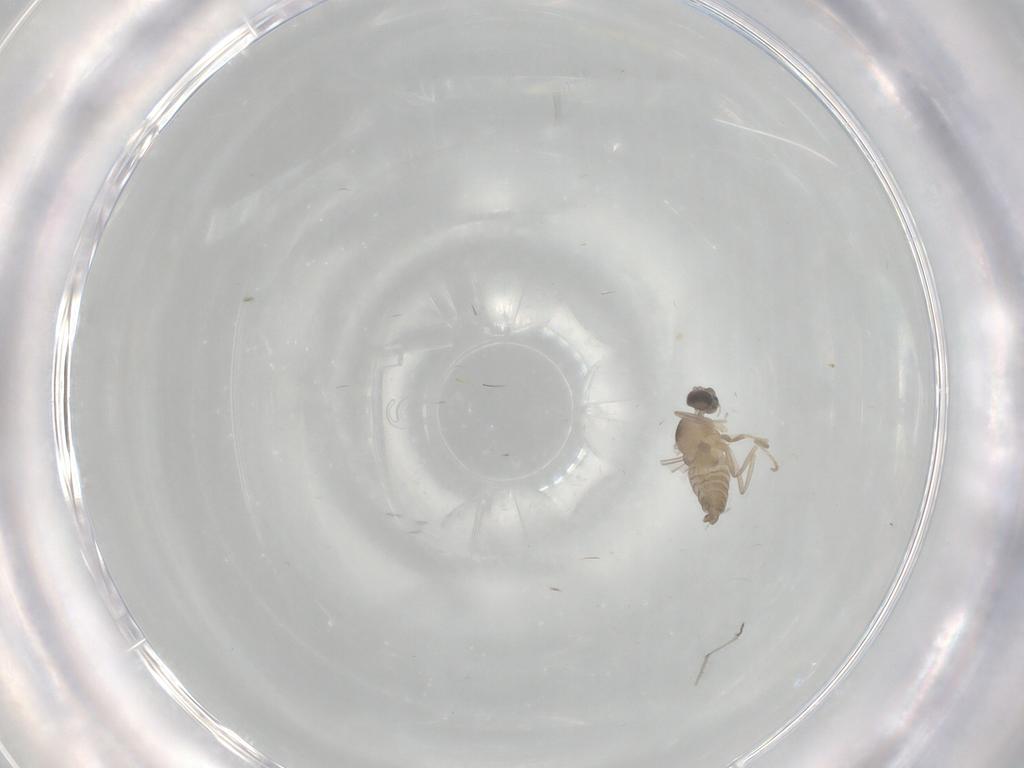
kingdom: Animalia
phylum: Arthropoda
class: Insecta
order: Diptera
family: Cecidomyiidae
